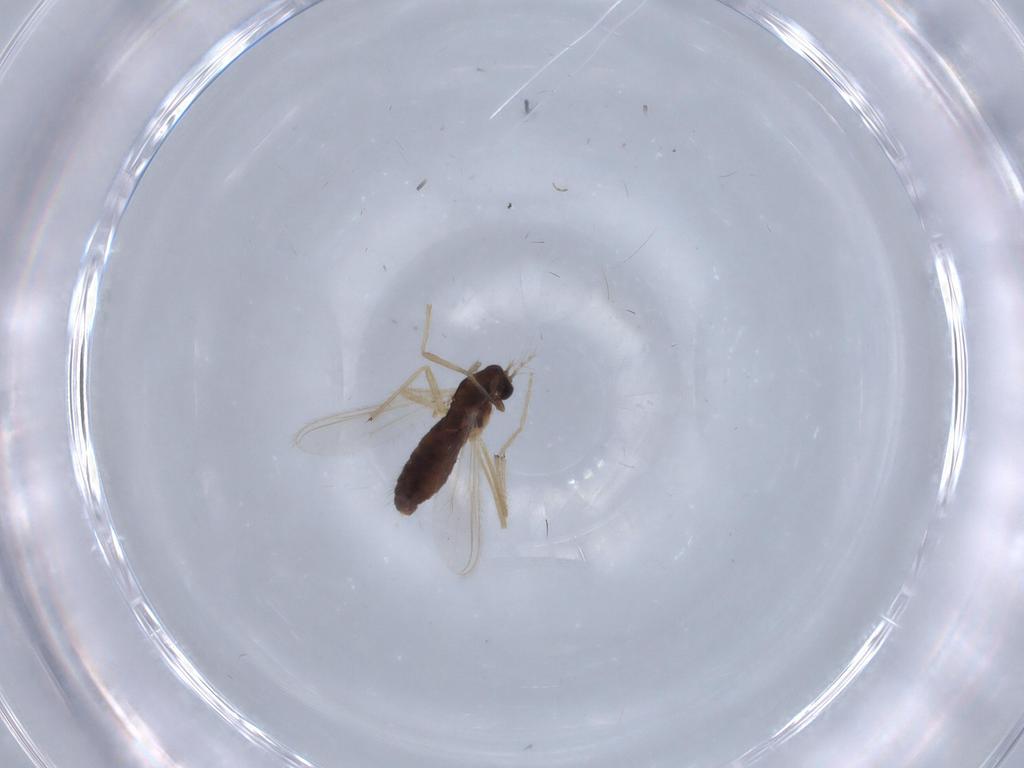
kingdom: Animalia
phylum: Arthropoda
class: Insecta
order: Diptera
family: Chironomidae
